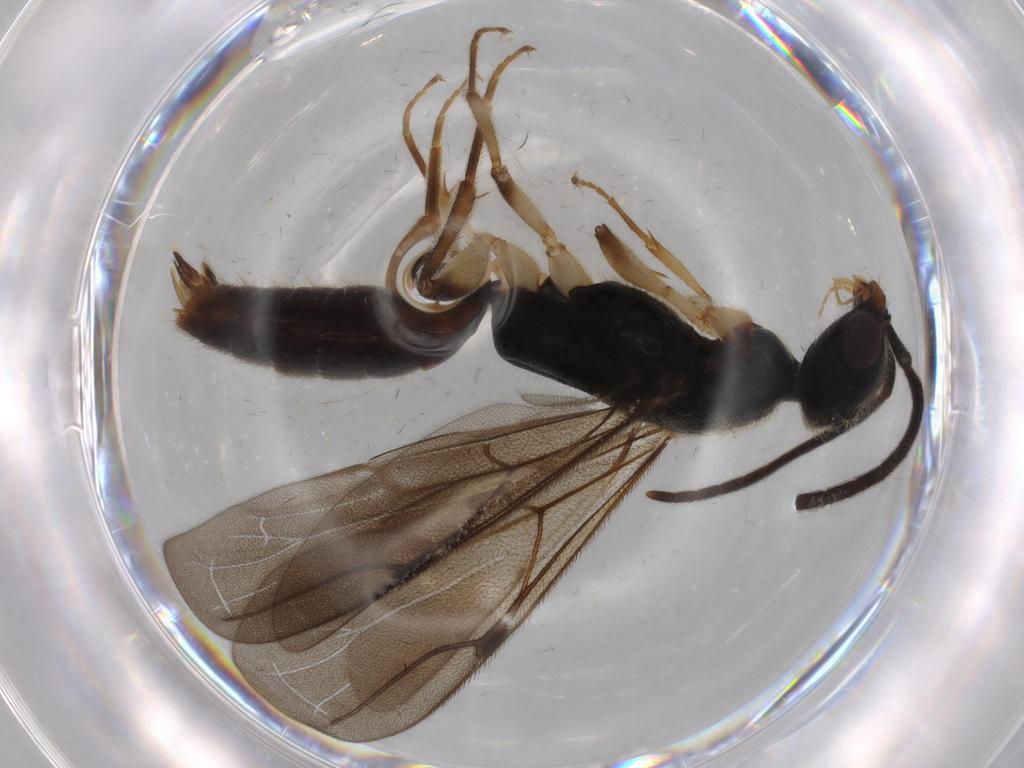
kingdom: Animalia
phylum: Arthropoda
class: Insecta
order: Hymenoptera
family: Bethylidae
